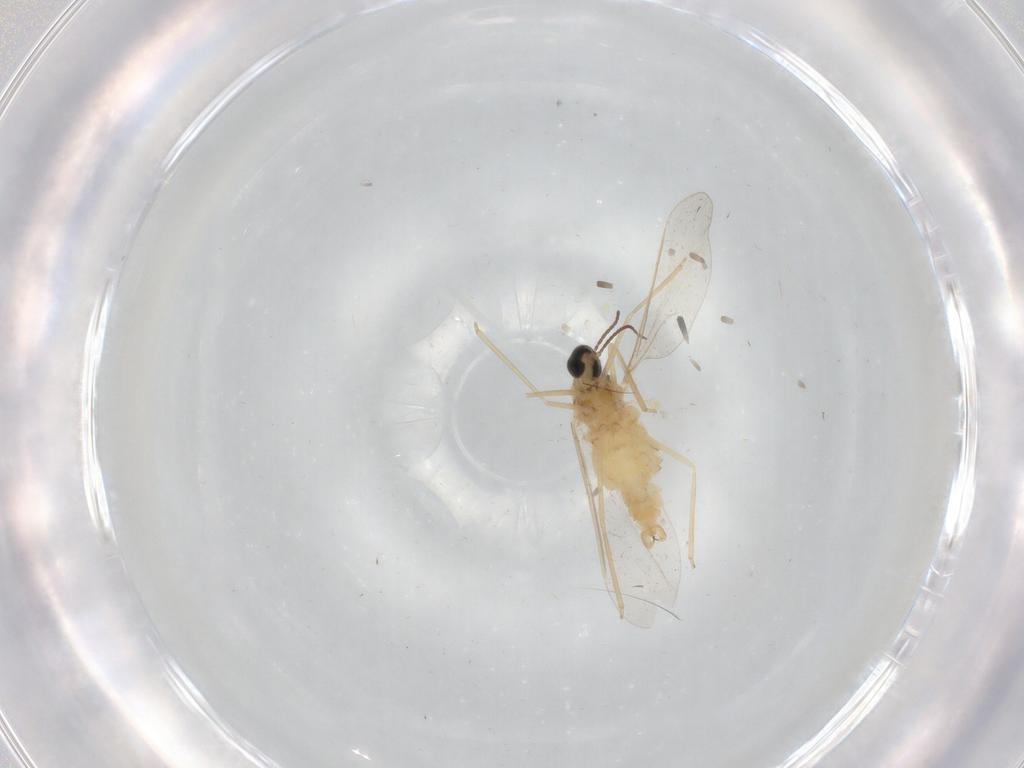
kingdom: Animalia
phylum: Arthropoda
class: Insecta
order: Diptera
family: Cecidomyiidae
